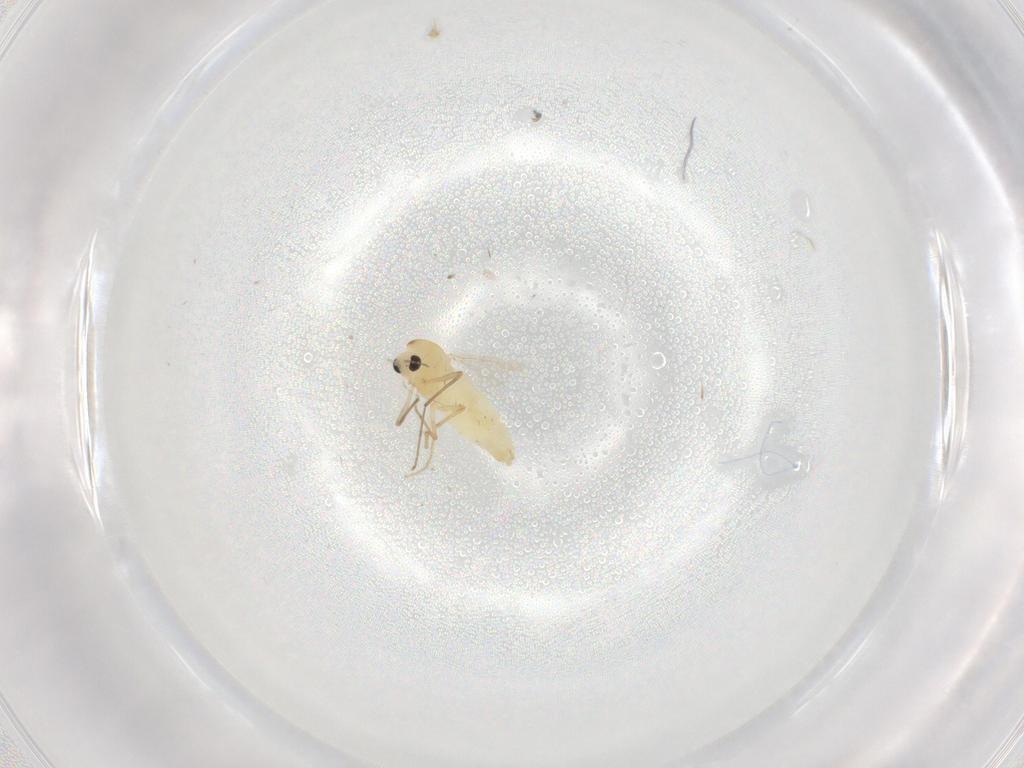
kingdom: Animalia
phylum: Arthropoda
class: Insecta
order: Diptera
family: Chironomidae
